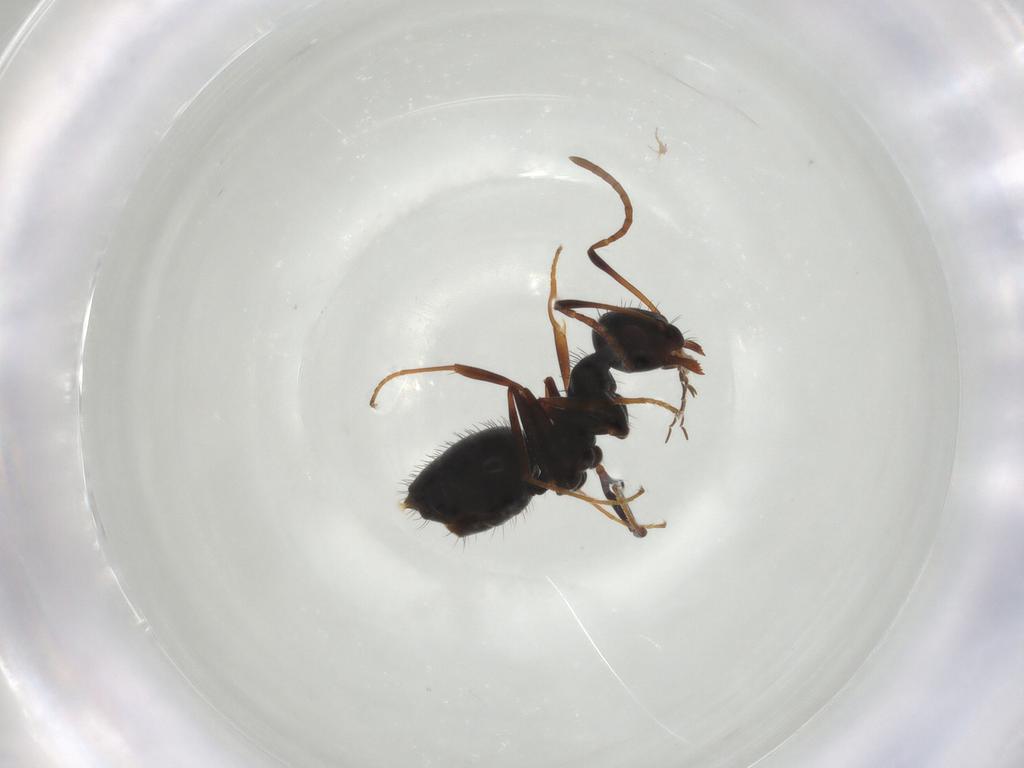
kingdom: Animalia
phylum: Arthropoda
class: Insecta
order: Hymenoptera
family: Formicidae
